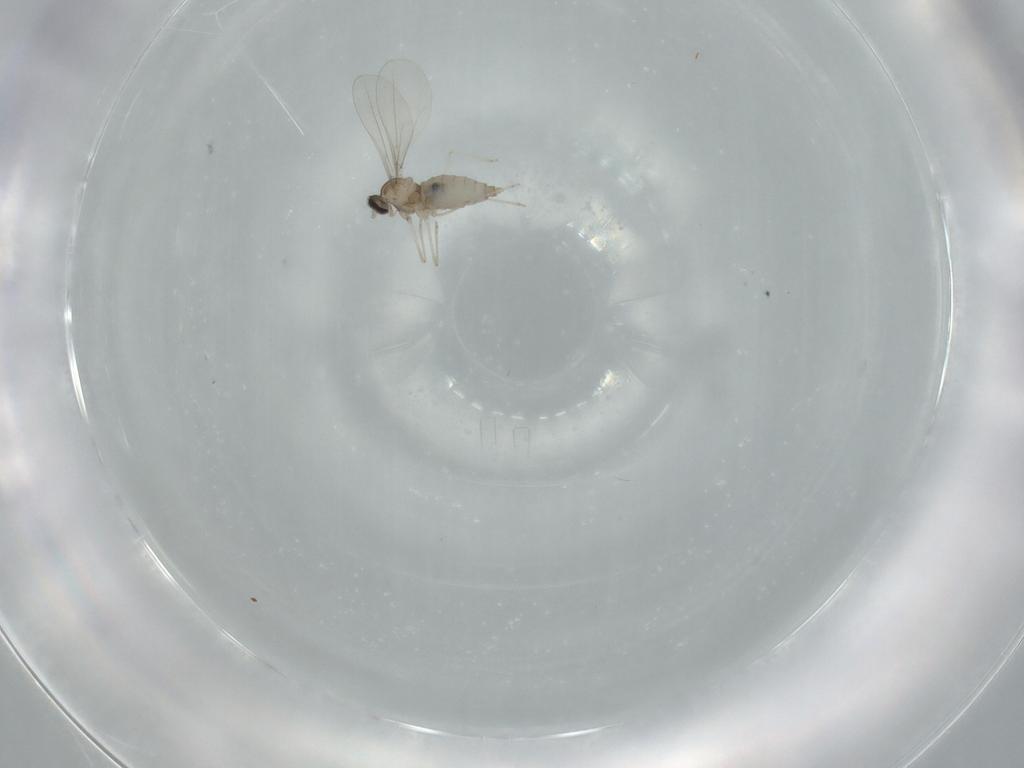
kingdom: Animalia
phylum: Arthropoda
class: Insecta
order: Diptera
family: Cecidomyiidae
